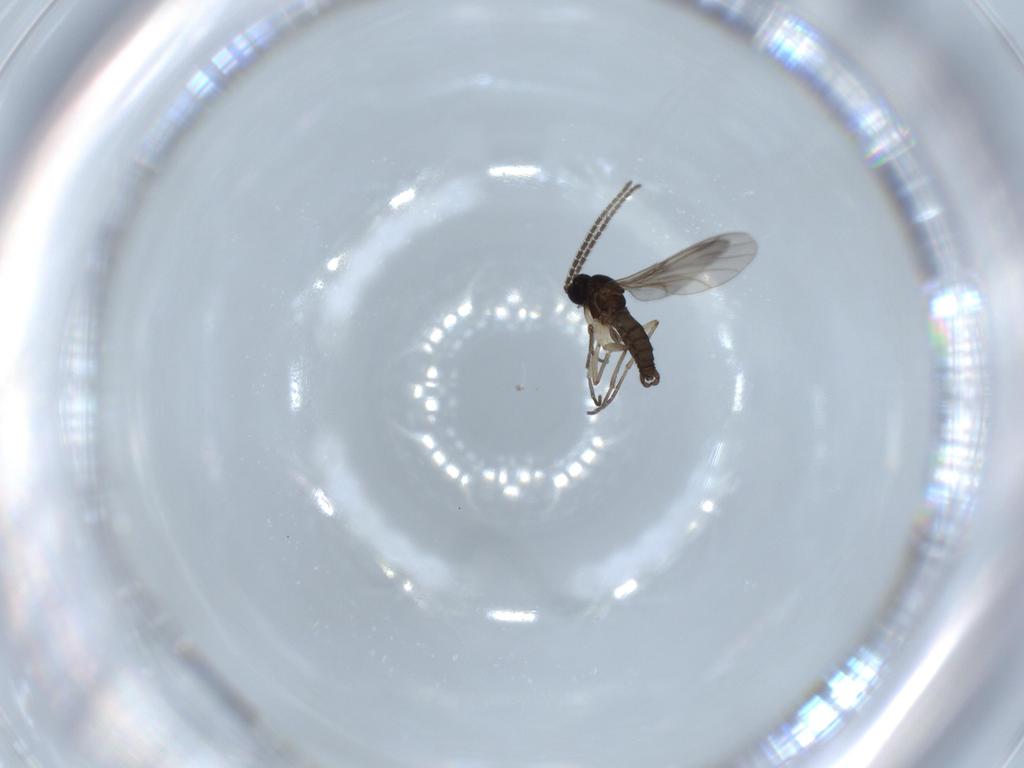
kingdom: Animalia
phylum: Arthropoda
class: Insecta
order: Diptera
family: Sciaridae
